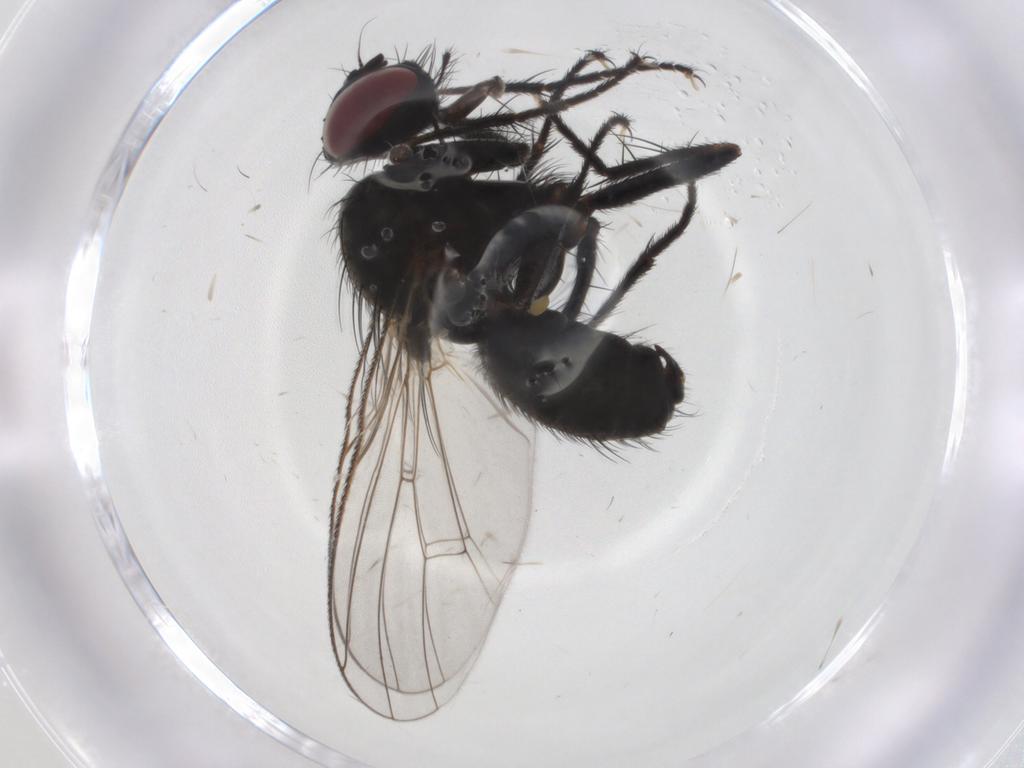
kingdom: Animalia
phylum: Arthropoda
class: Insecta
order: Diptera
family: Muscidae
